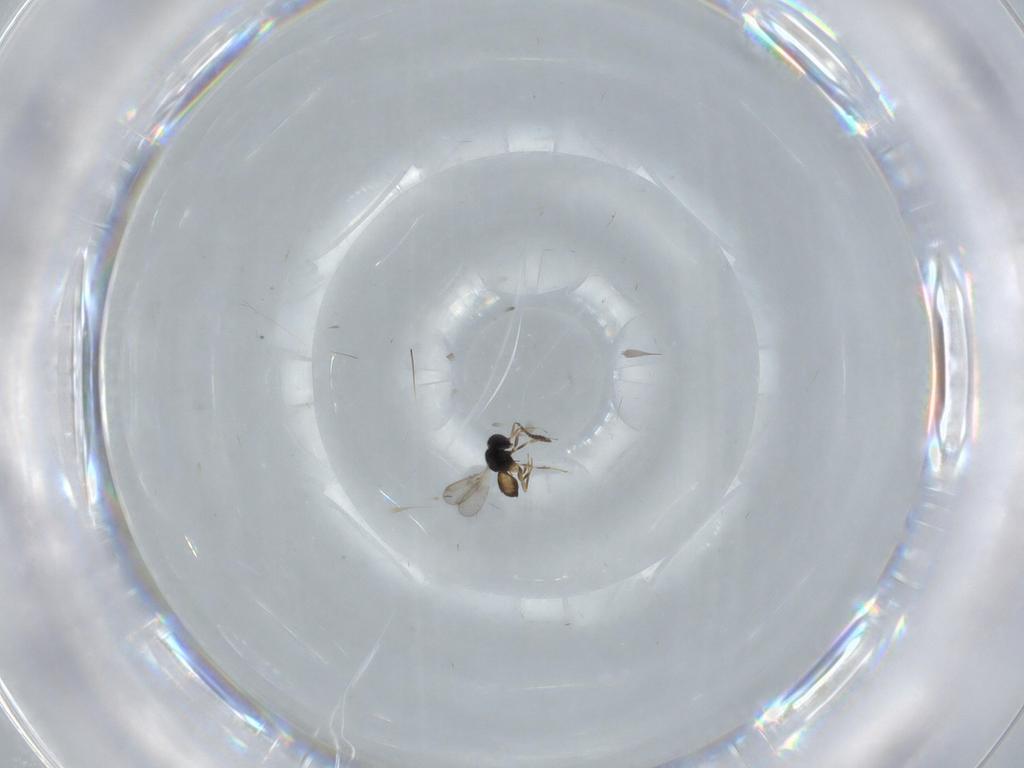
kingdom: Animalia
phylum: Arthropoda
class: Insecta
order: Hymenoptera
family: Scelionidae
